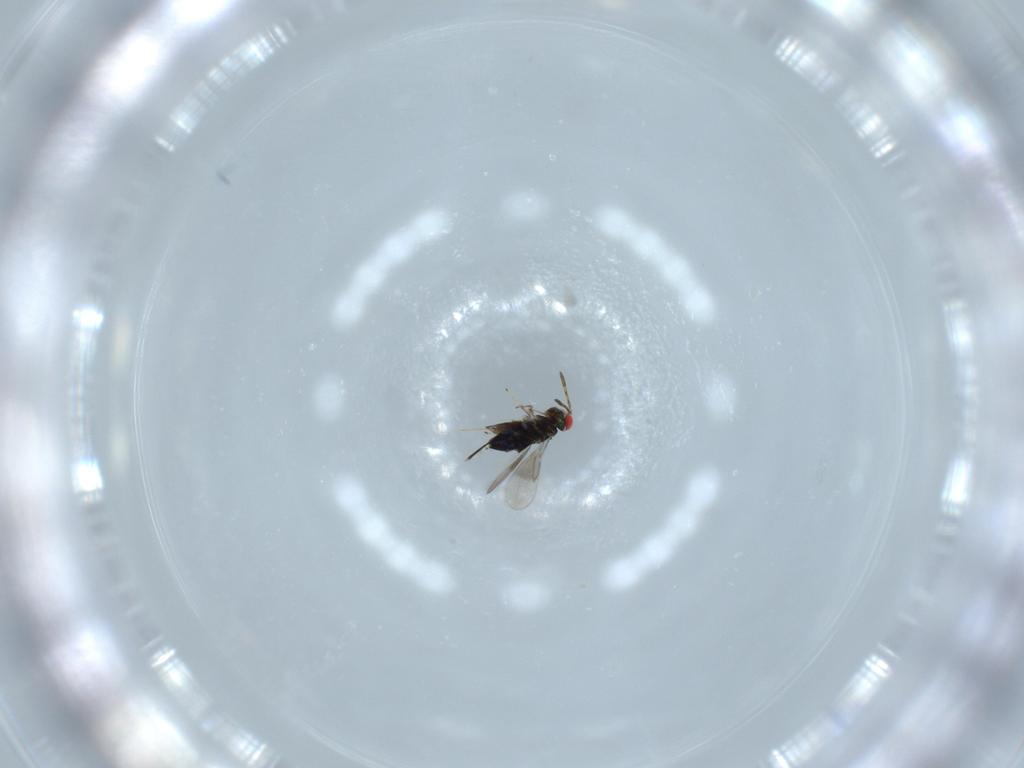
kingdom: Animalia
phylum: Arthropoda
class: Insecta
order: Hymenoptera
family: Azotidae
